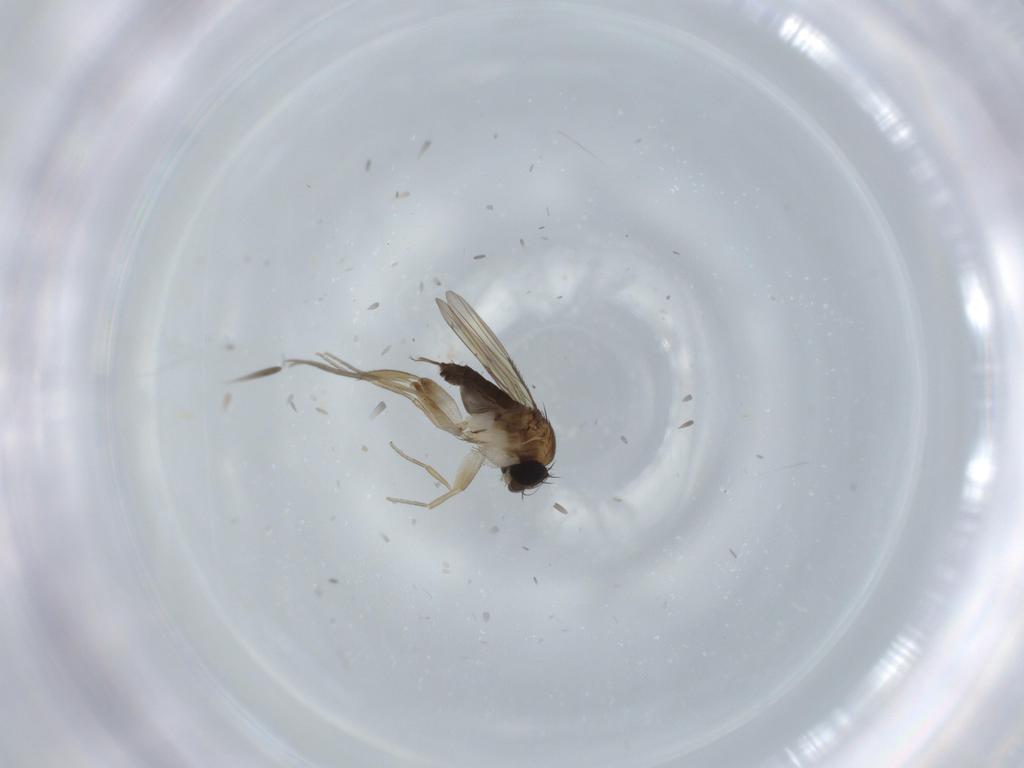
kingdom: Animalia
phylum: Arthropoda
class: Insecta
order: Diptera
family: Phoridae
